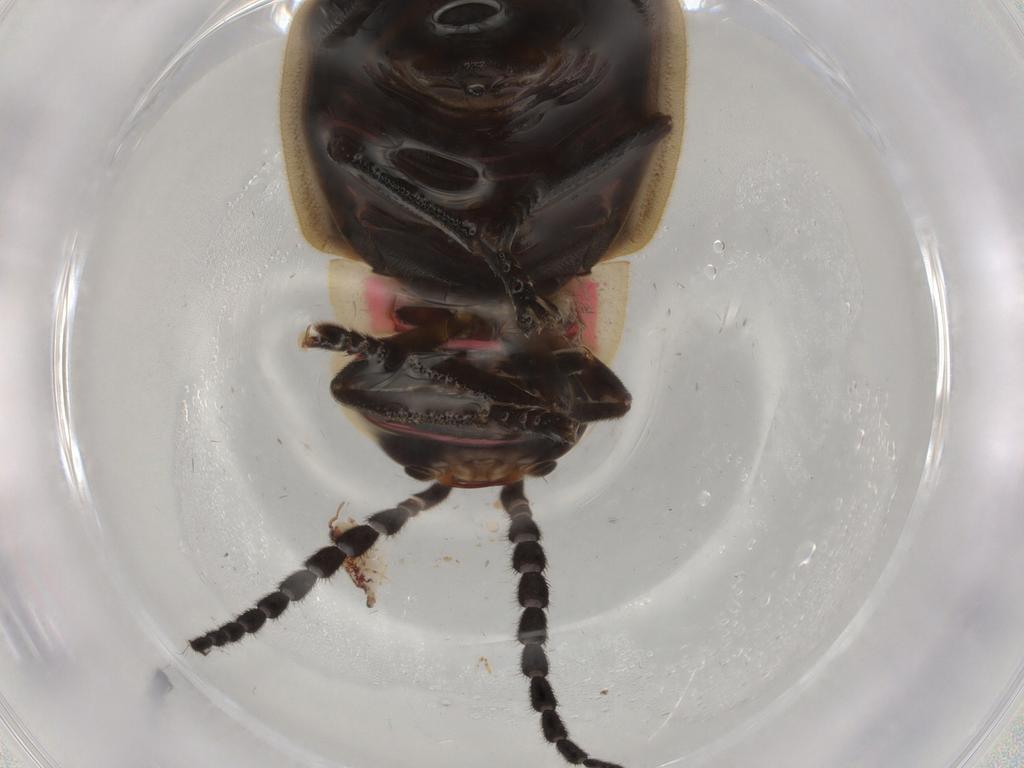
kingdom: Animalia
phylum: Arthropoda
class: Insecta
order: Coleoptera
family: Lampyridae
